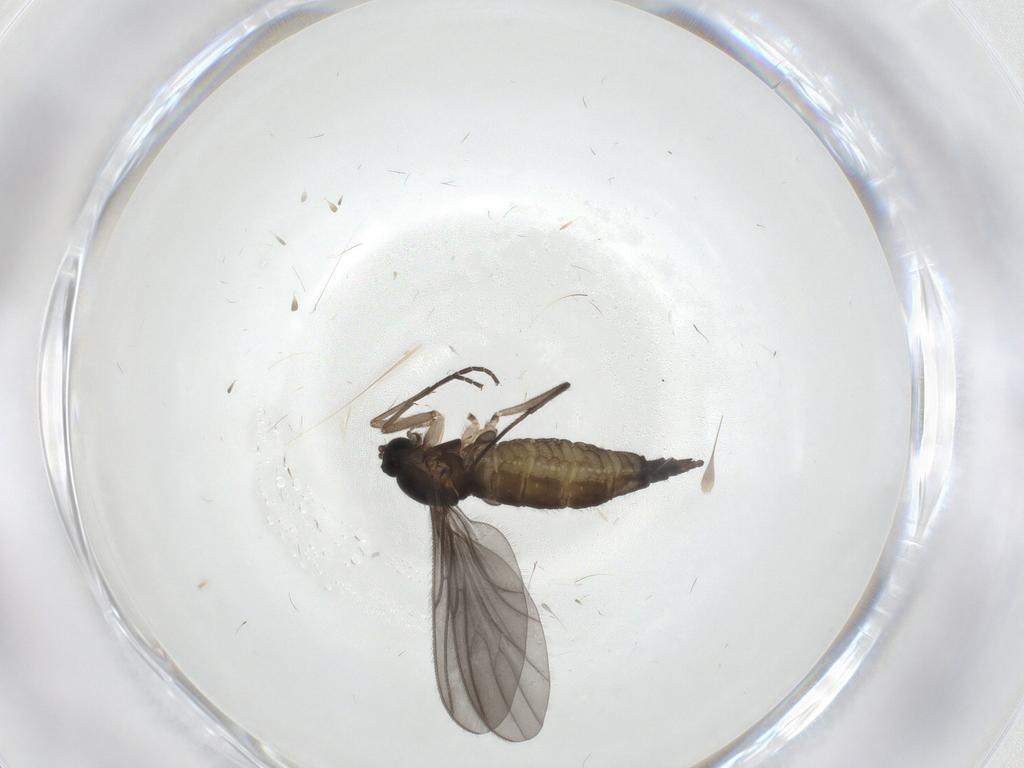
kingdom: Animalia
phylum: Arthropoda
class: Insecta
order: Diptera
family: Sciaridae
